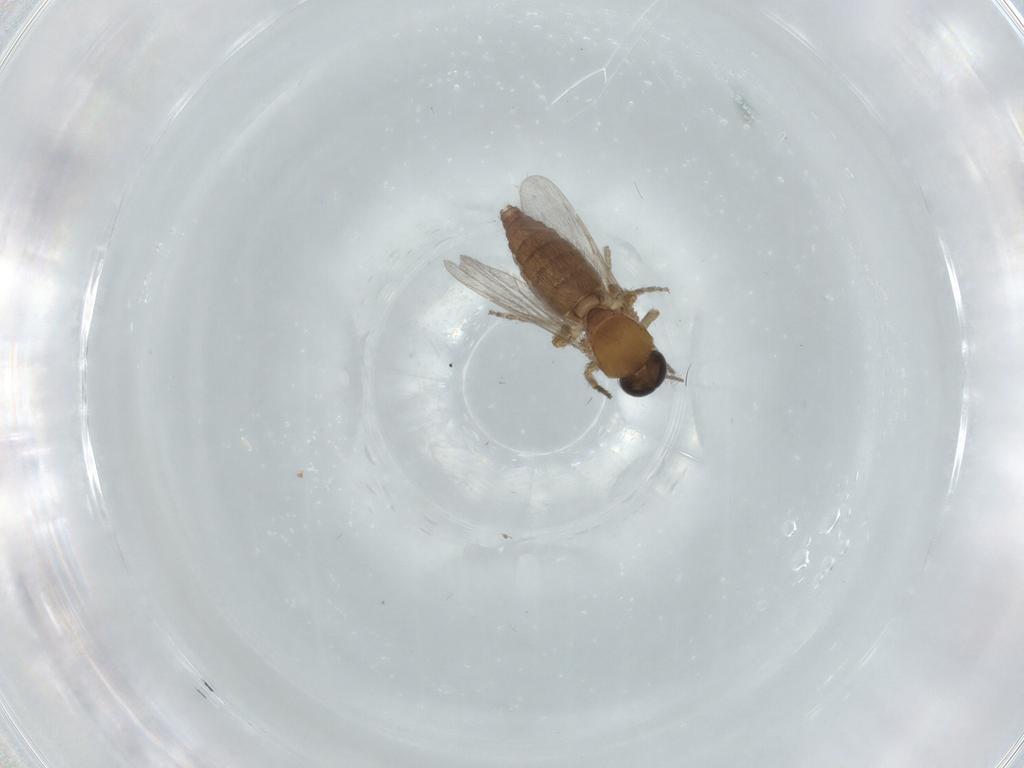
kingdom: Animalia
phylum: Arthropoda
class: Insecta
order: Diptera
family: Ceratopogonidae
